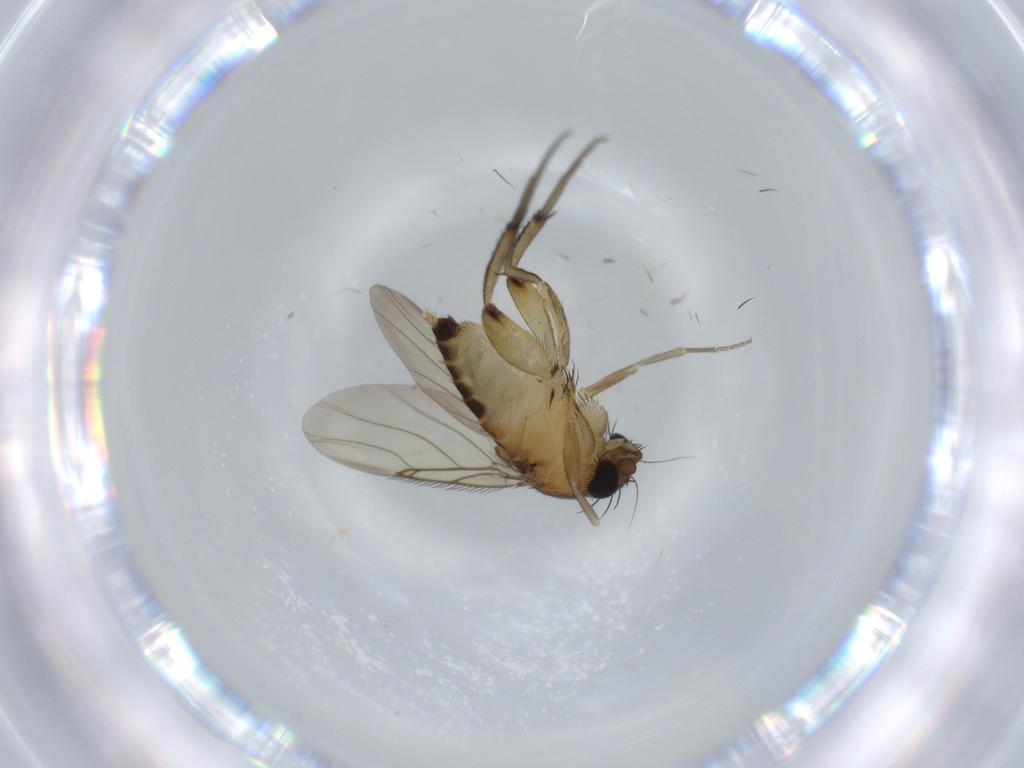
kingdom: Animalia
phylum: Arthropoda
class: Insecta
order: Diptera
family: Phoridae
